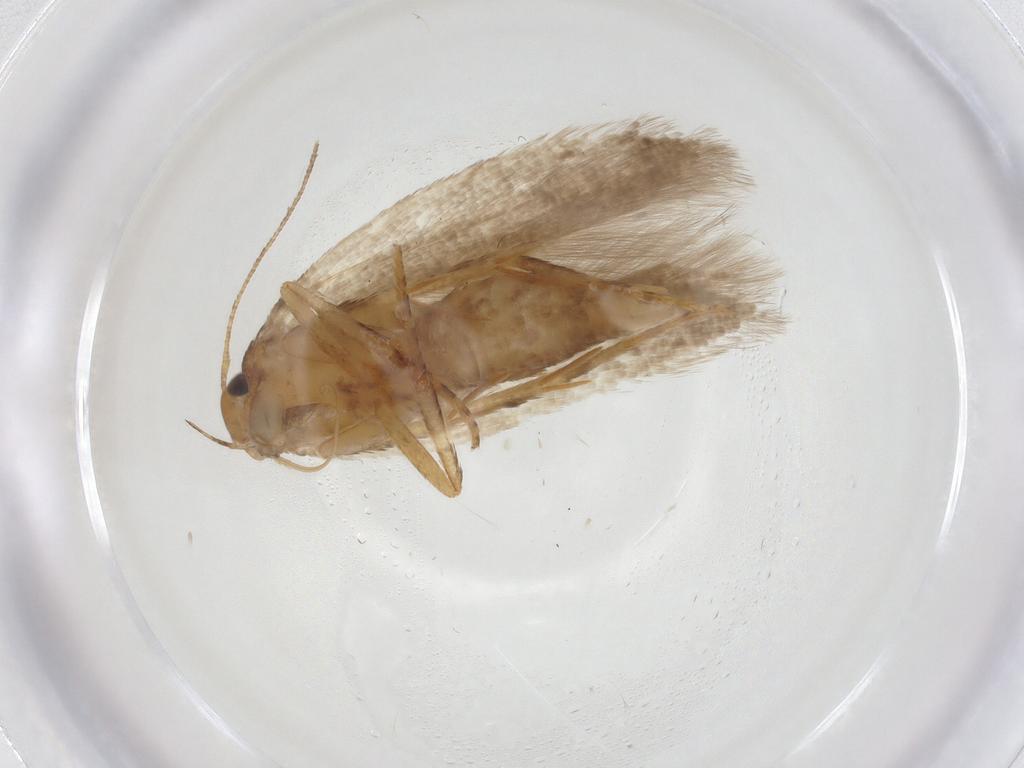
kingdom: Animalia
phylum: Arthropoda
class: Insecta
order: Lepidoptera
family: Gelechiidae
